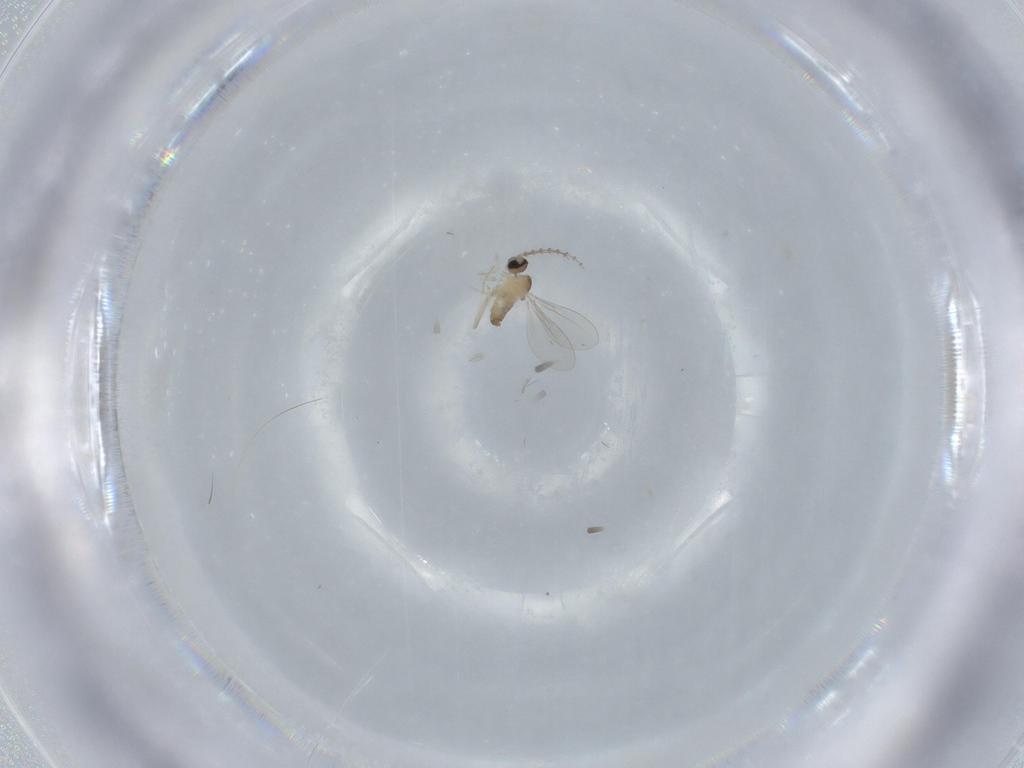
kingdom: Animalia
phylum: Arthropoda
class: Insecta
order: Diptera
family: Cecidomyiidae
